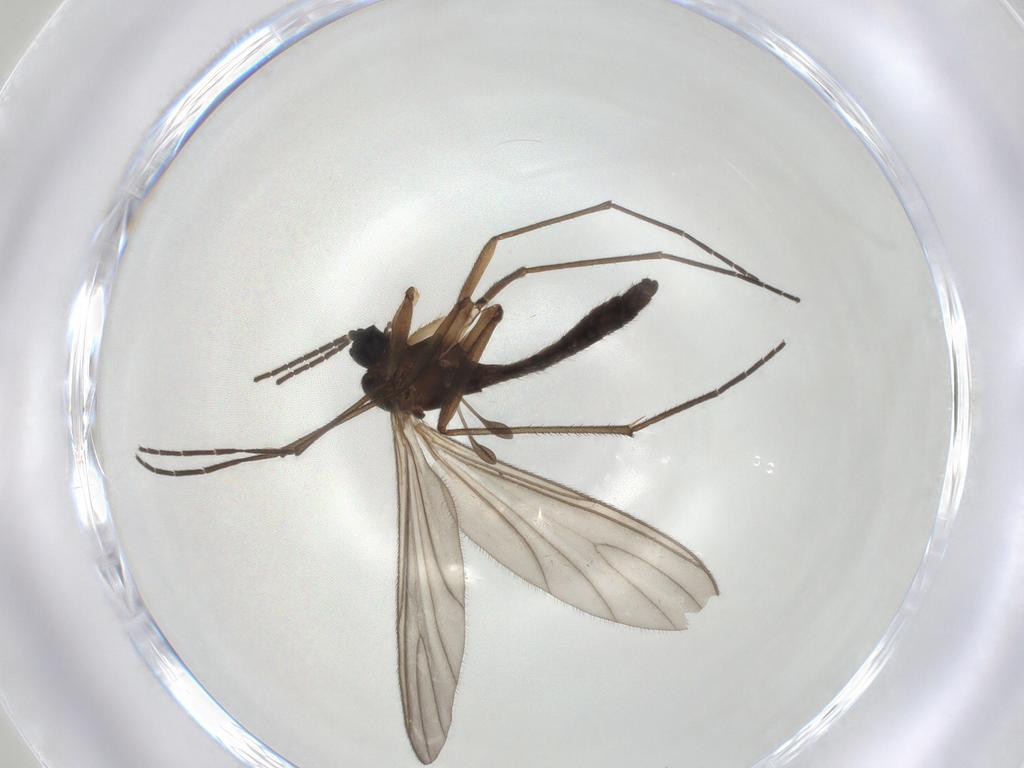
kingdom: Animalia
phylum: Arthropoda
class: Insecta
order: Diptera
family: Sciaridae
